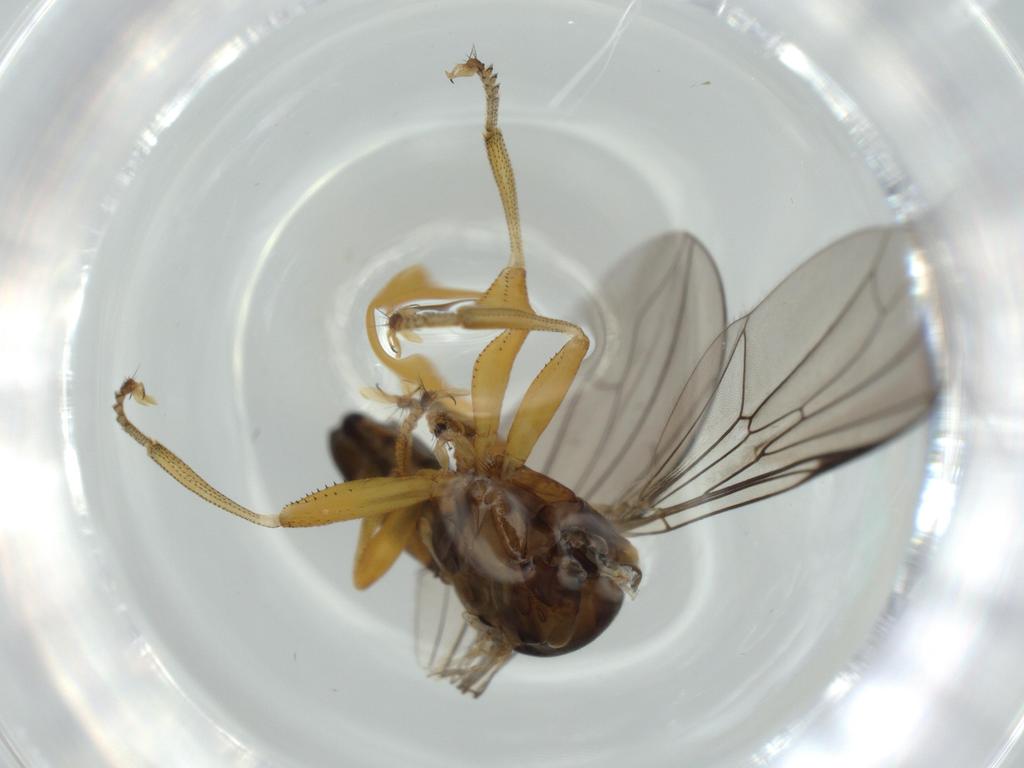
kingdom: Animalia
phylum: Arthropoda
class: Insecta
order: Diptera
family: Pipunculidae
